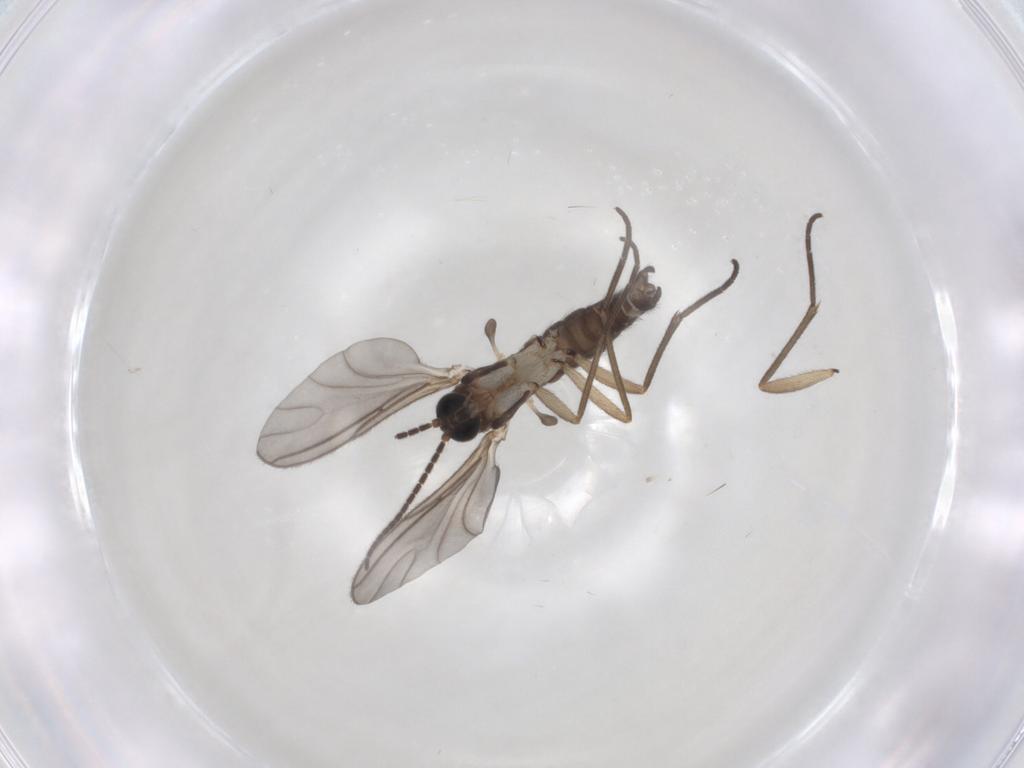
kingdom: Animalia
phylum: Arthropoda
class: Insecta
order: Diptera
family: Sciaridae
